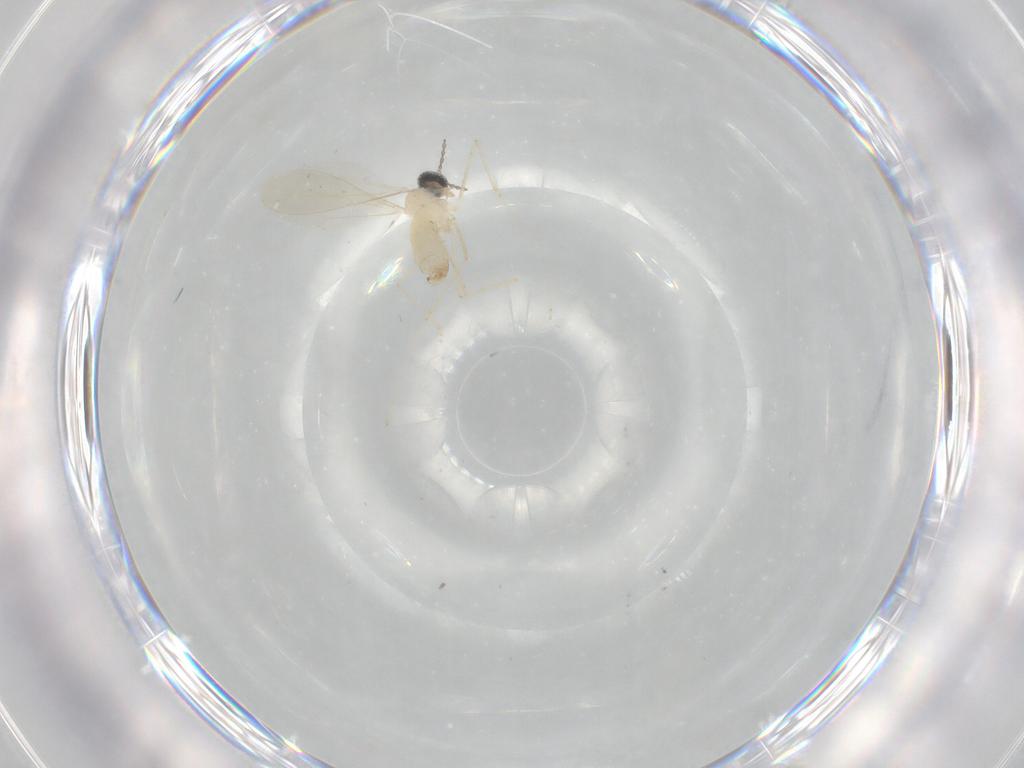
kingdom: Animalia
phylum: Arthropoda
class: Insecta
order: Diptera
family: Cecidomyiidae
